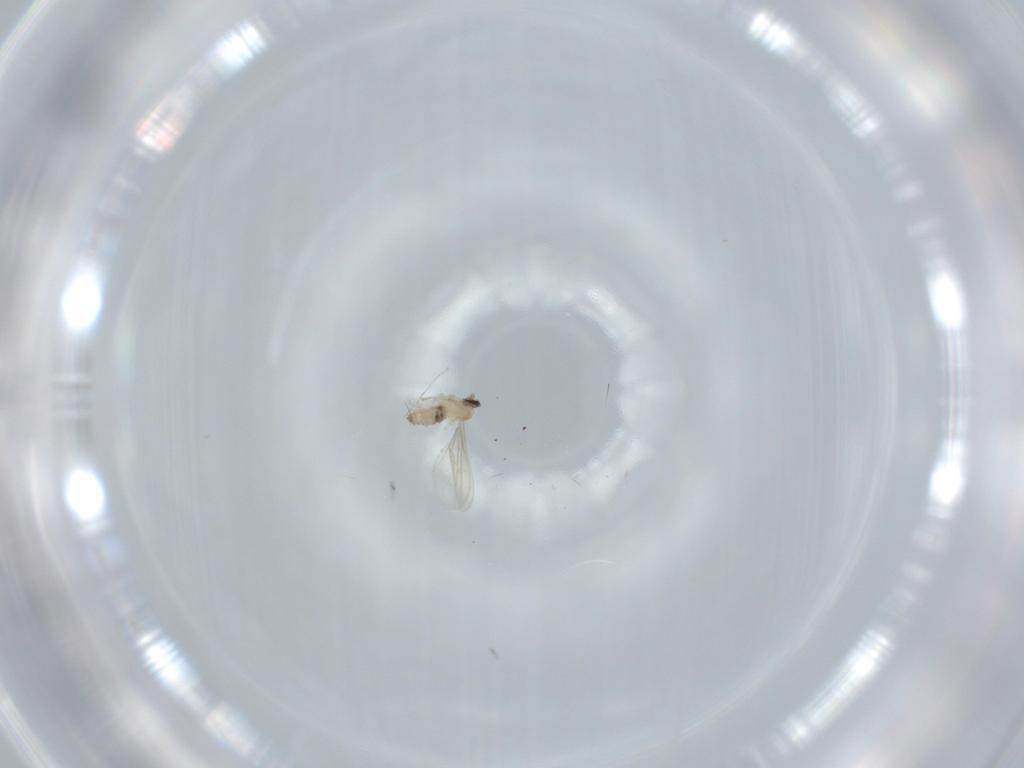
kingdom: Animalia
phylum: Arthropoda
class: Insecta
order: Diptera
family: Cecidomyiidae
